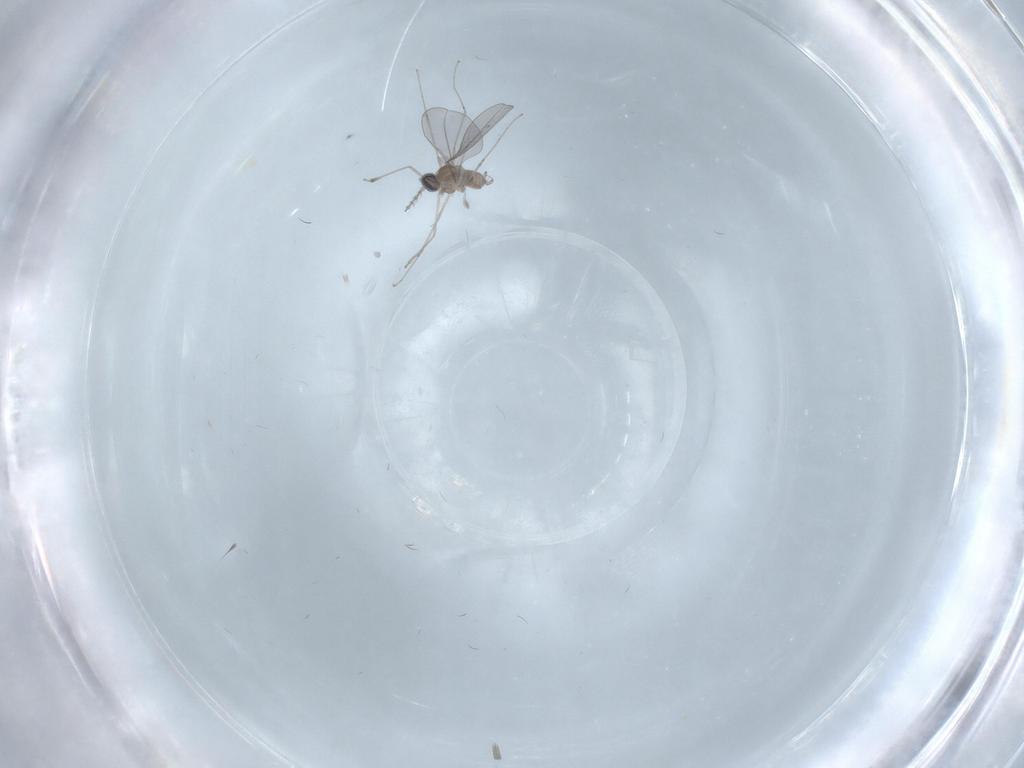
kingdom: Animalia
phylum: Arthropoda
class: Insecta
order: Diptera
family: Cecidomyiidae
